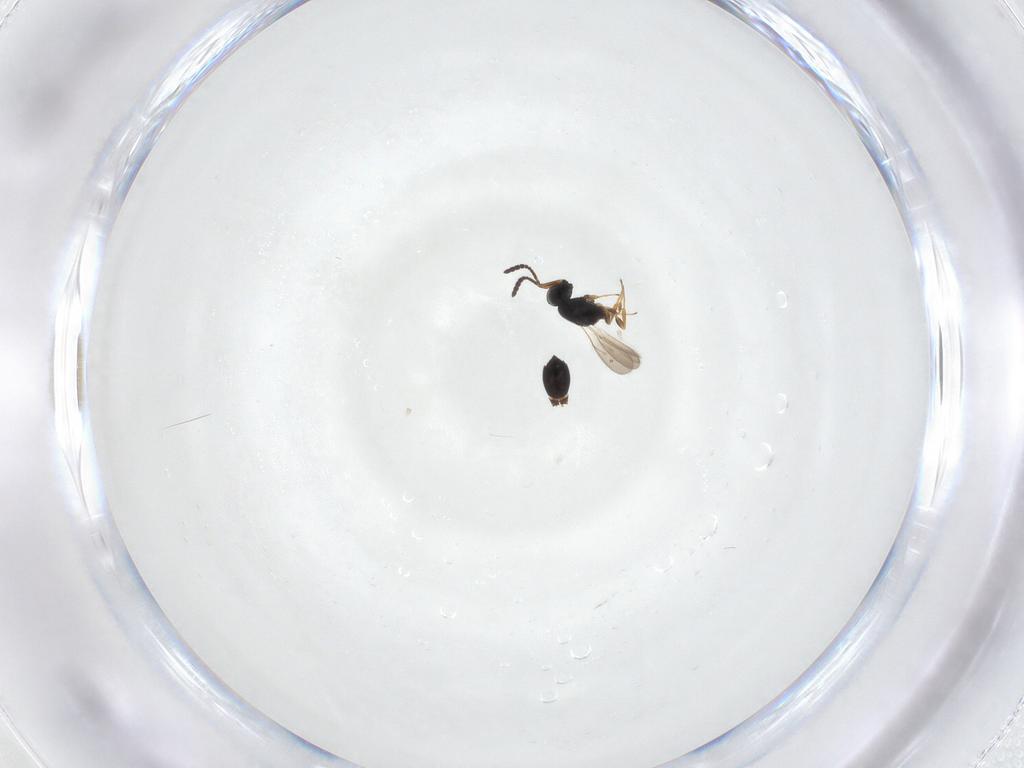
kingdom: Animalia
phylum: Arthropoda
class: Insecta
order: Hymenoptera
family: Scelionidae
